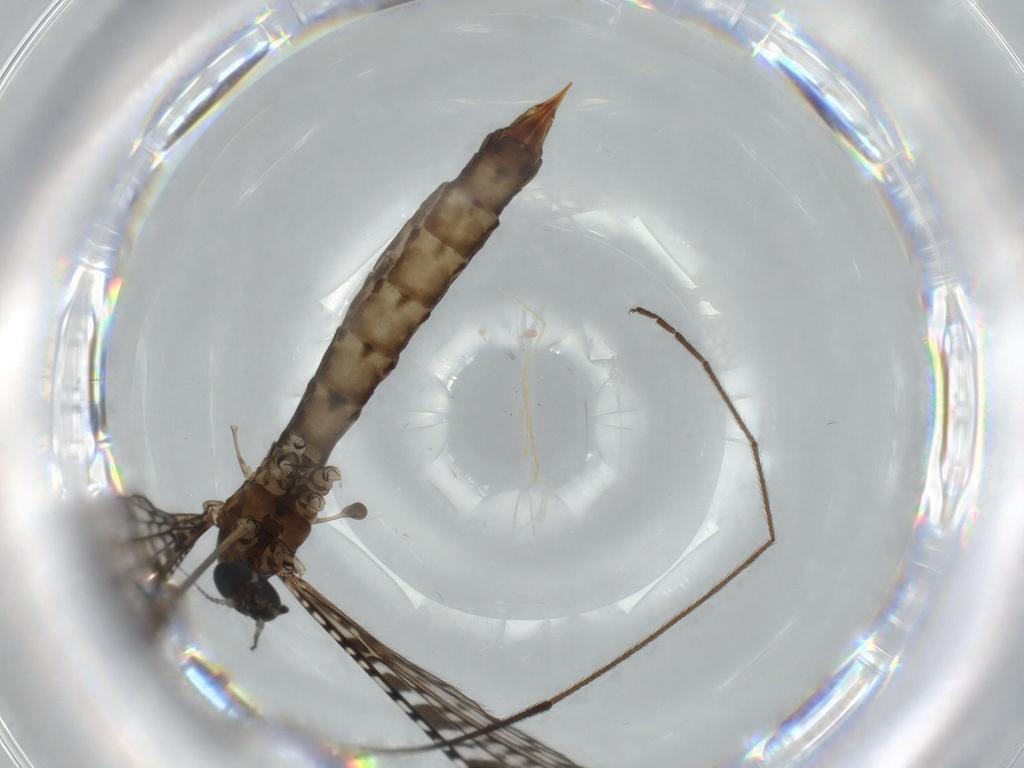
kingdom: Animalia
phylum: Arthropoda
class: Insecta
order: Diptera
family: Limoniidae
